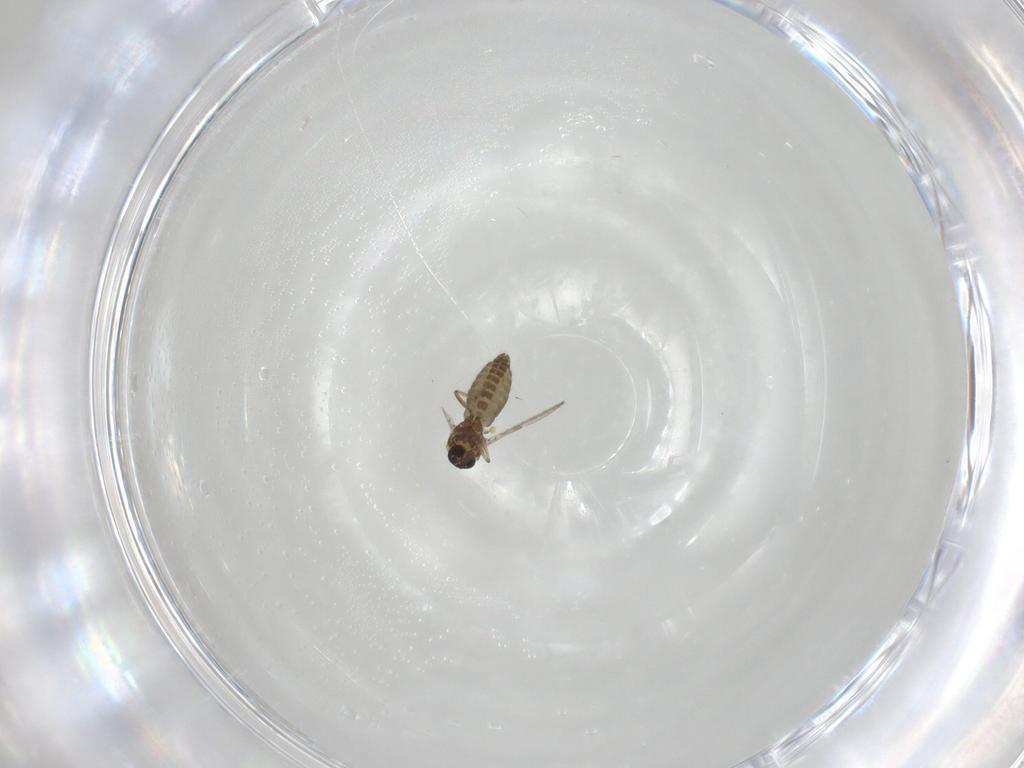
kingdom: Animalia
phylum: Arthropoda
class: Insecta
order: Diptera
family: Ceratopogonidae
